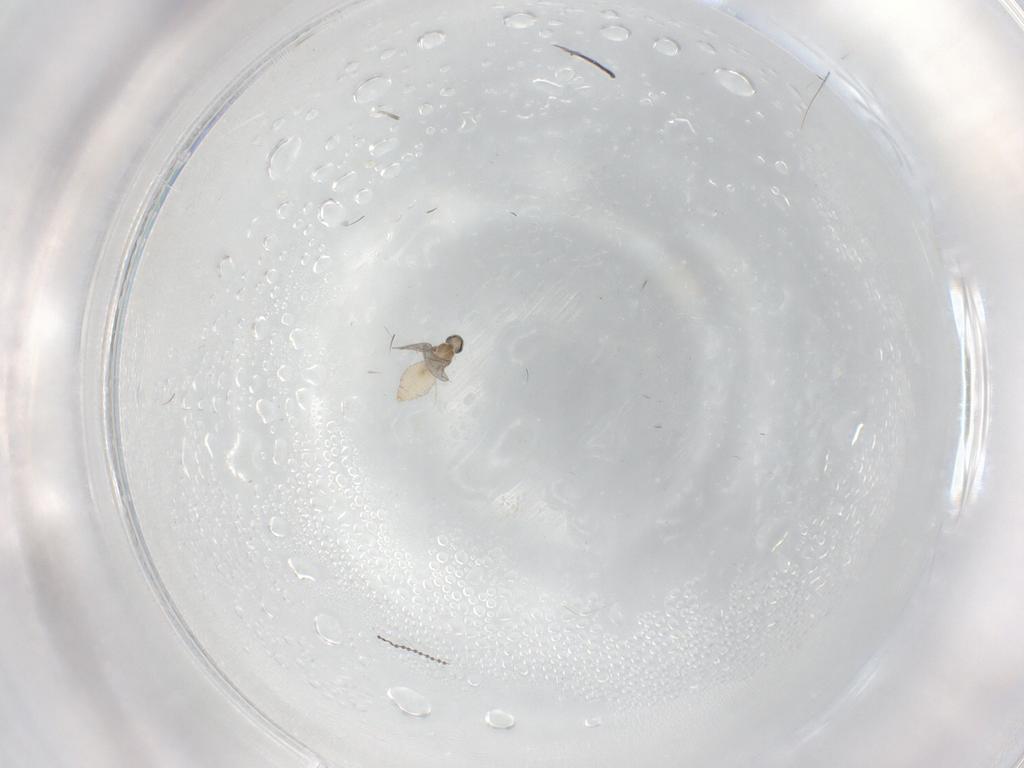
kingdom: Animalia
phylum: Arthropoda
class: Insecta
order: Diptera
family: Cecidomyiidae
